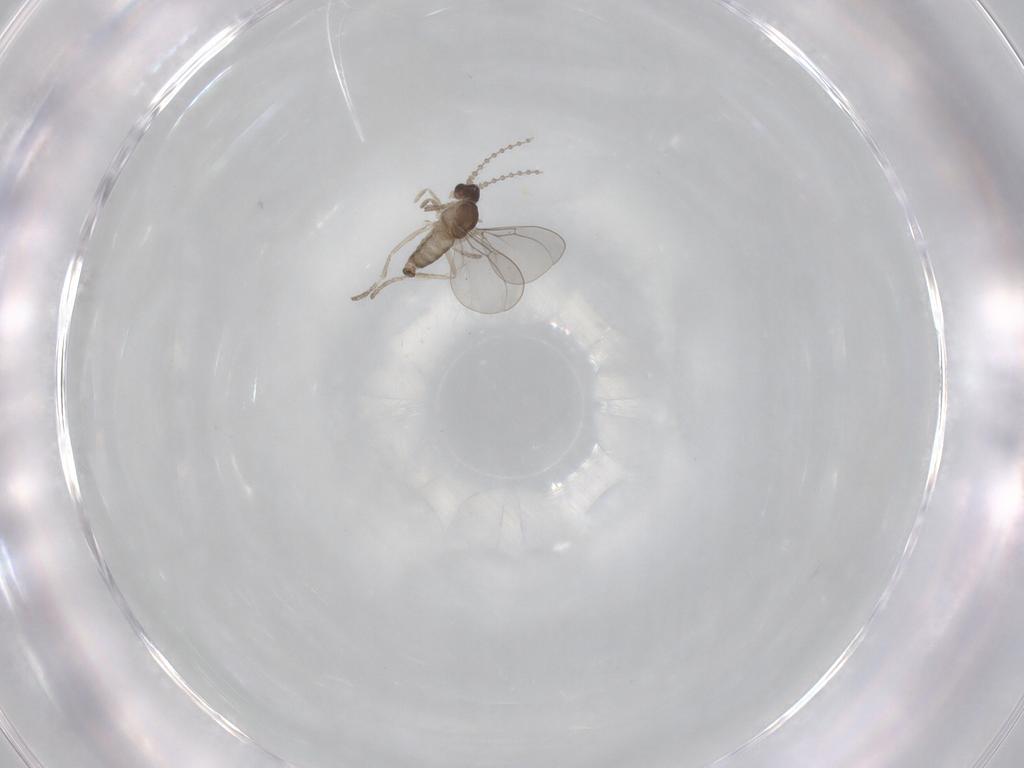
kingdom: Animalia
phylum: Arthropoda
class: Insecta
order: Diptera
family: Cecidomyiidae
